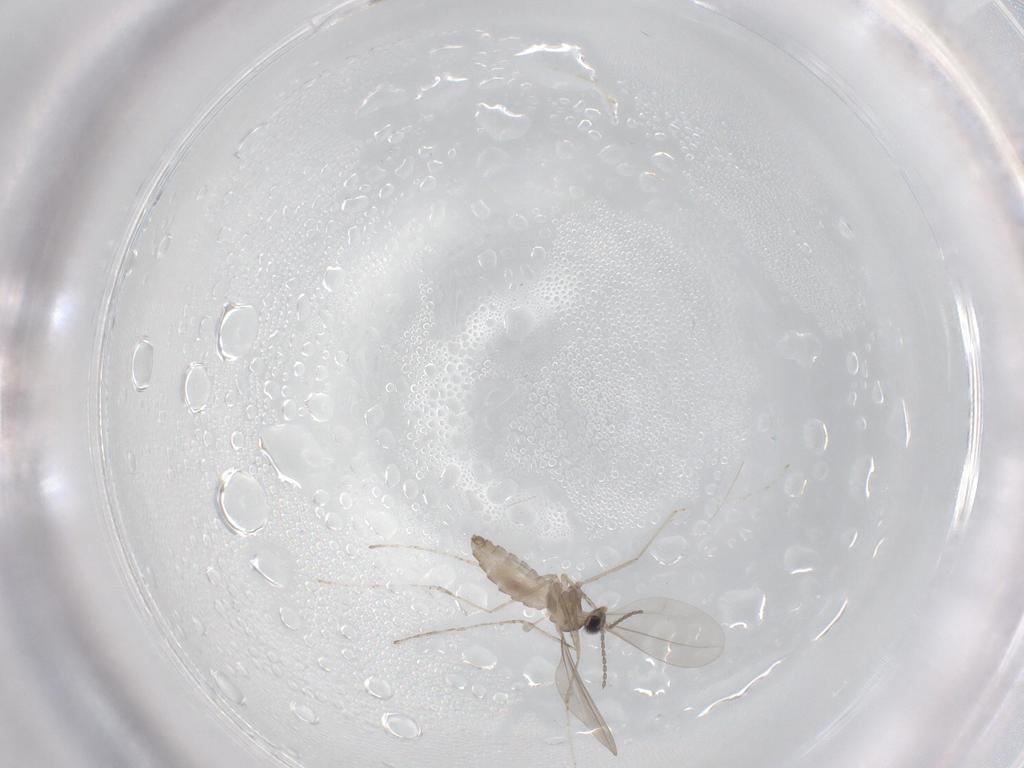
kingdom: Animalia
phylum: Arthropoda
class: Insecta
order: Diptera
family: Cecidomyiidae
